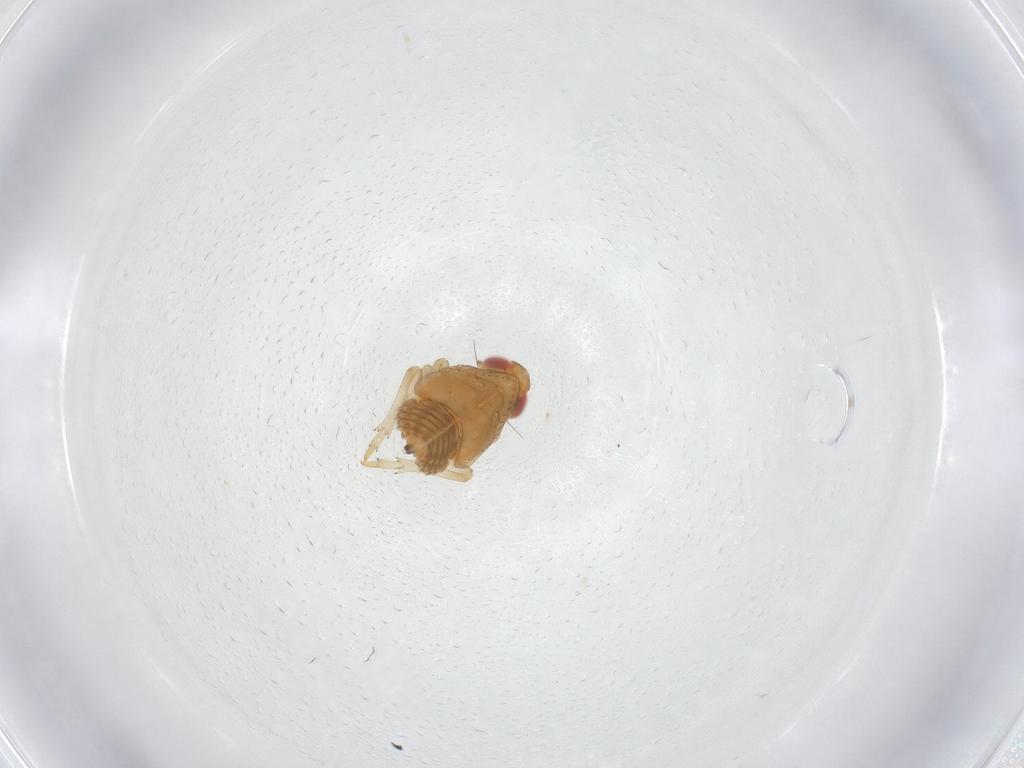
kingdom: Animalia
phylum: Arthropoda
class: Insecta
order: Hemiptera
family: Fulgoroidea_incertae_sedis
